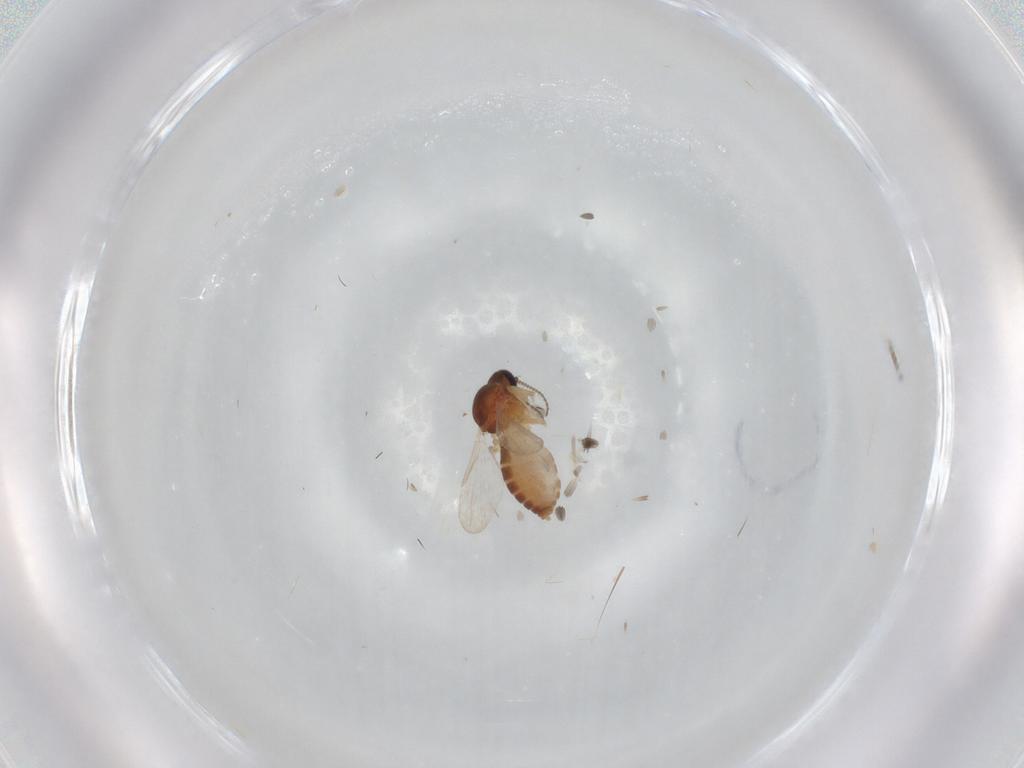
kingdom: Animalia
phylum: Arthropoda
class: Insecta
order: Diptera
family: Ceratopogonidae
